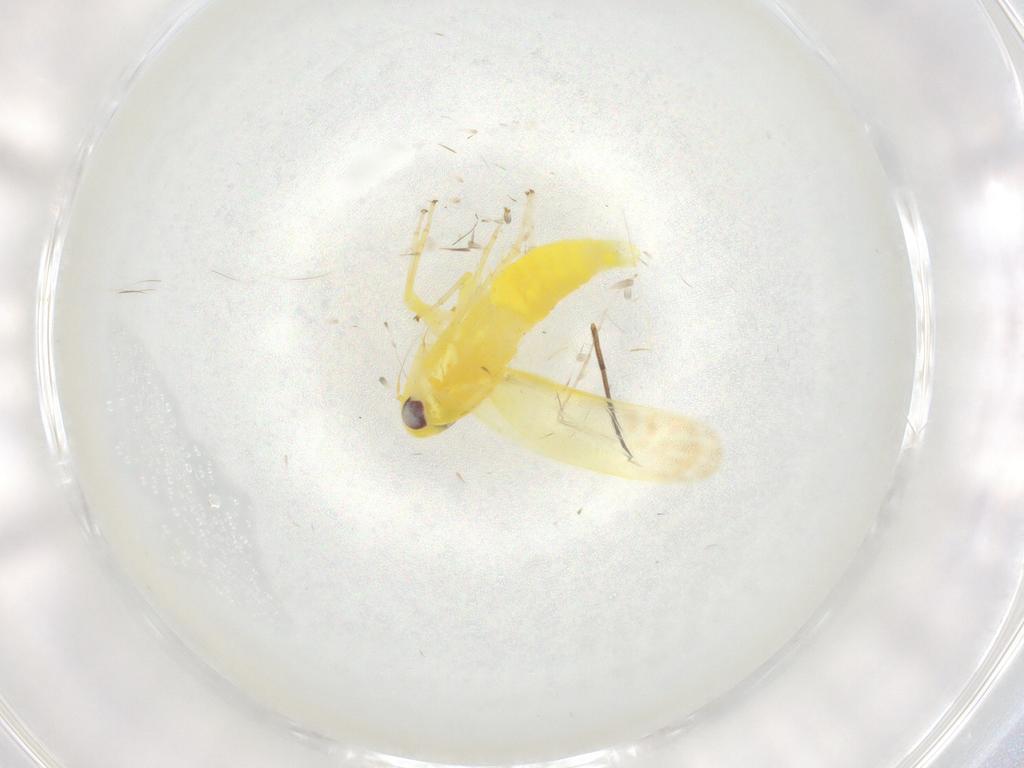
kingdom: Animalia
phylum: Arthropoda
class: Insecta
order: Hemiptera
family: Cicadellidae
